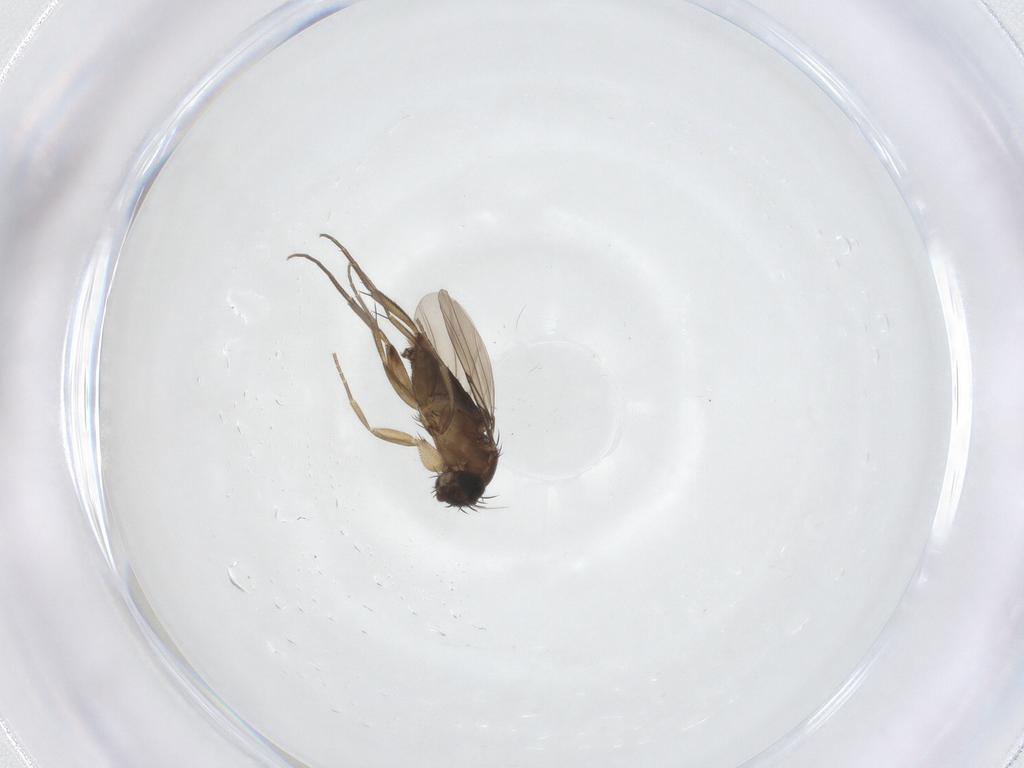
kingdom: Animalia
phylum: Arthropoda
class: Insecta
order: Diptera
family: Phoridae
